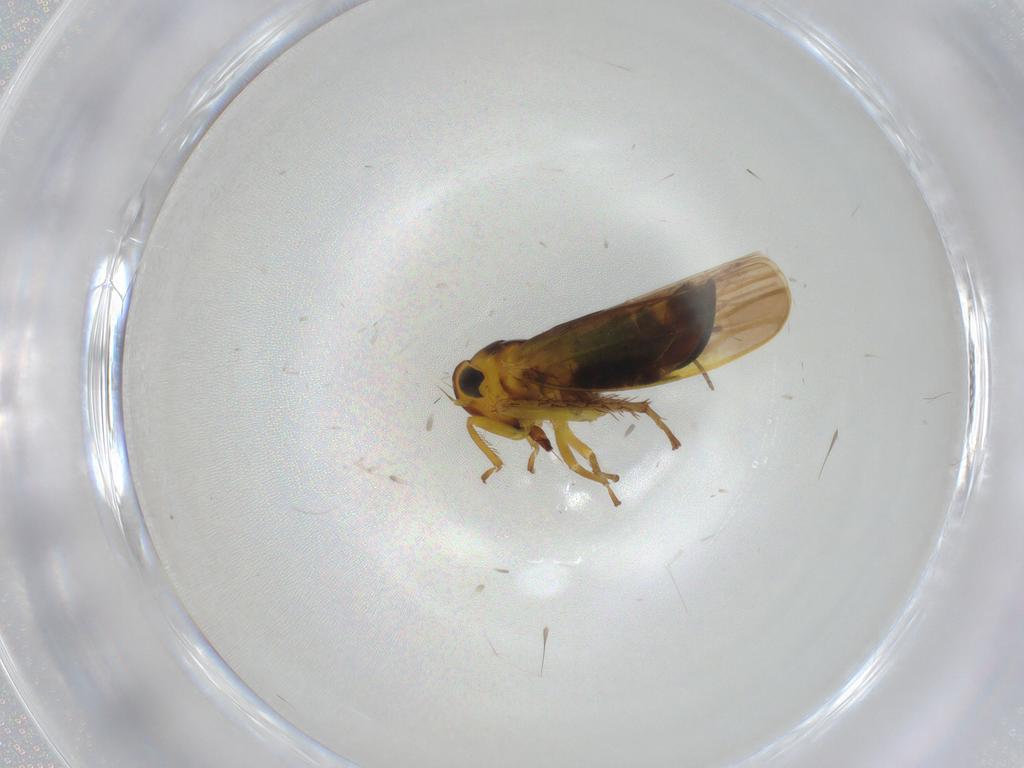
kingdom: Animalia
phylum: Arthropoda
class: Insecta
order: Hemiptera
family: Cicadellidae
